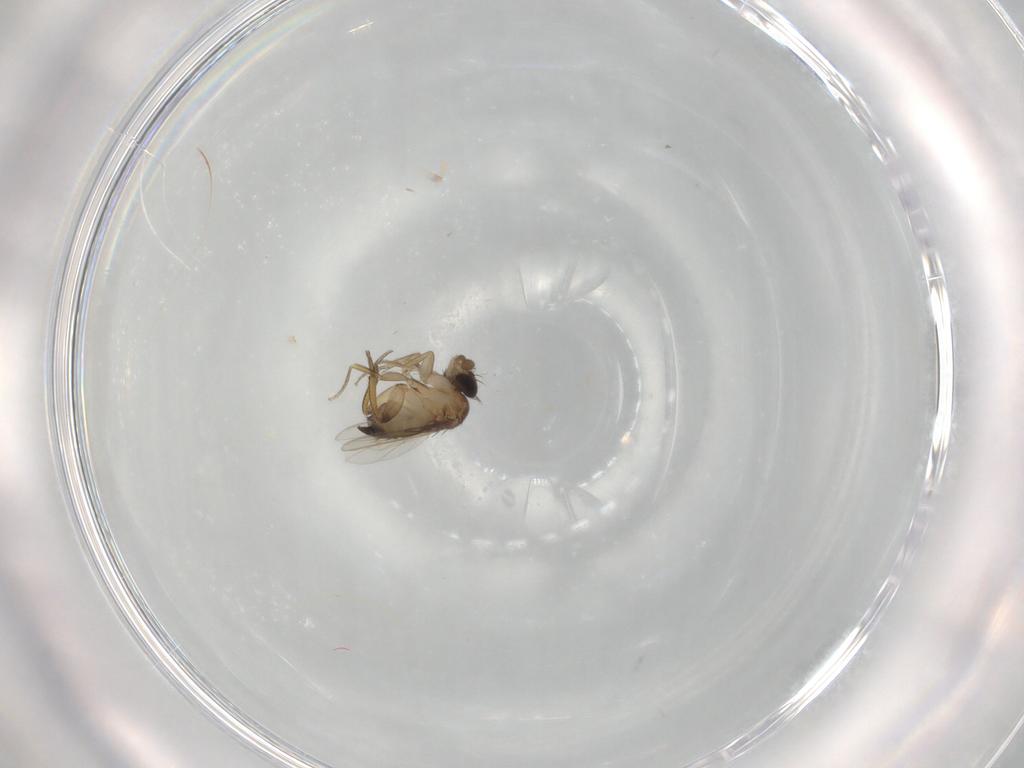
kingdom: Animalia
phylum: Arthropoda
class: Insecta
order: Diptera
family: Phoridae
